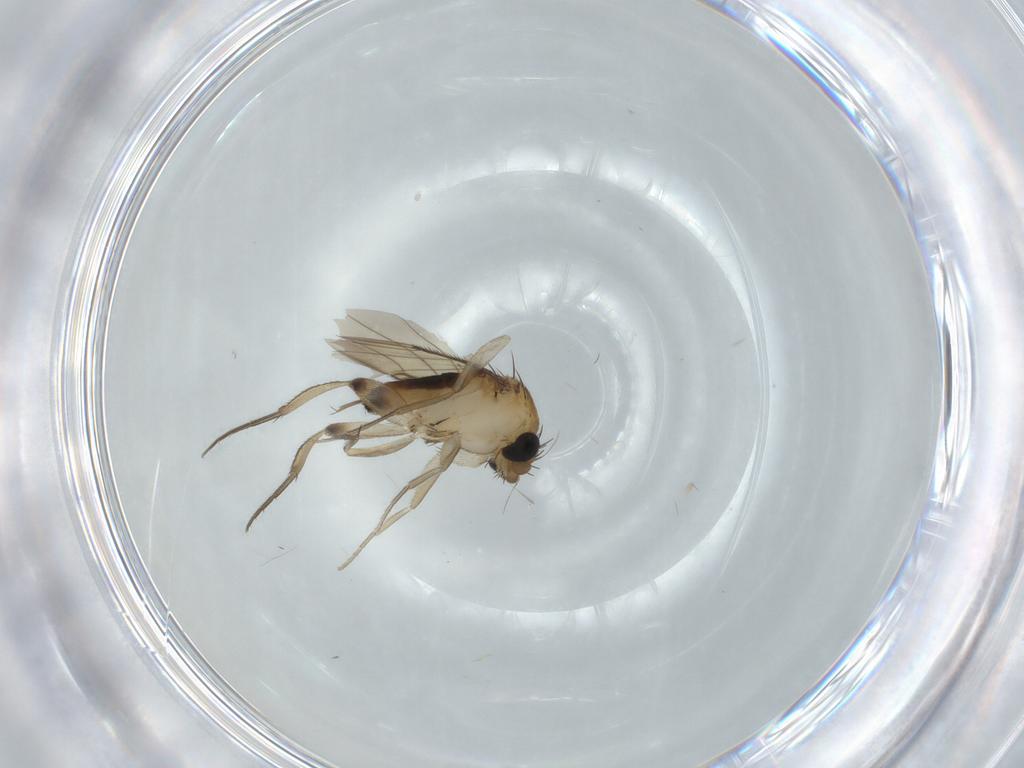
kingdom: Animalia
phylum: Arthropoda
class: Insecta
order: Diptera
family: Phoridae
